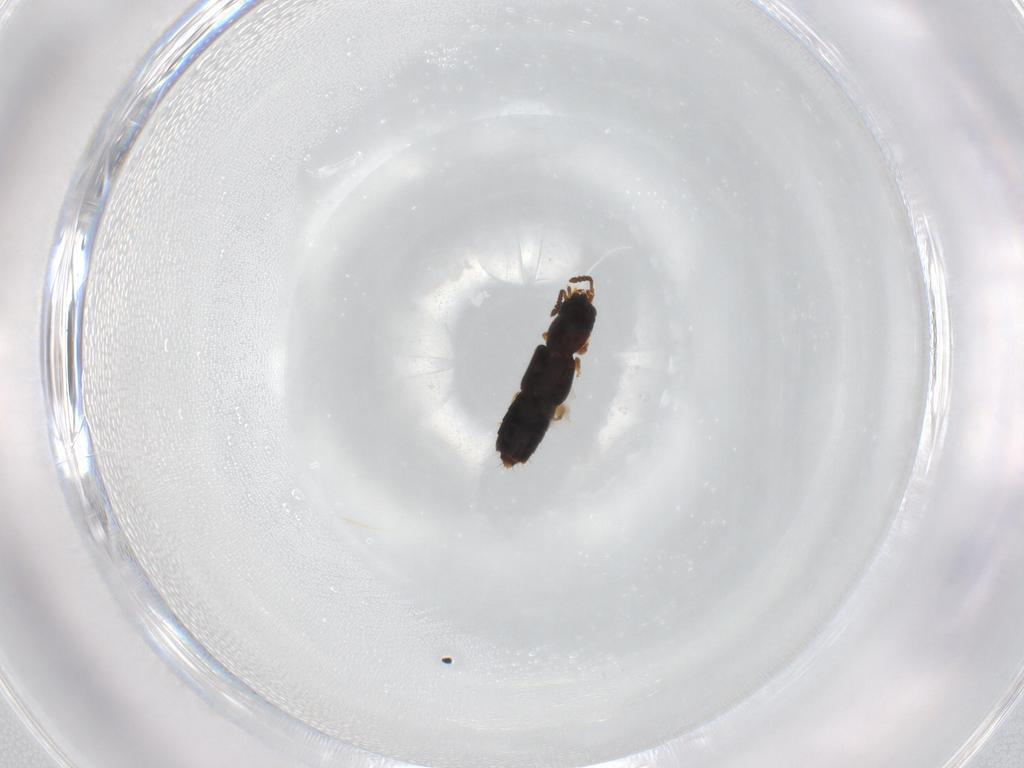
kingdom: Animalia
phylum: Arthropoda
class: Insecta
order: Coleoptera
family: Staphylinidae
